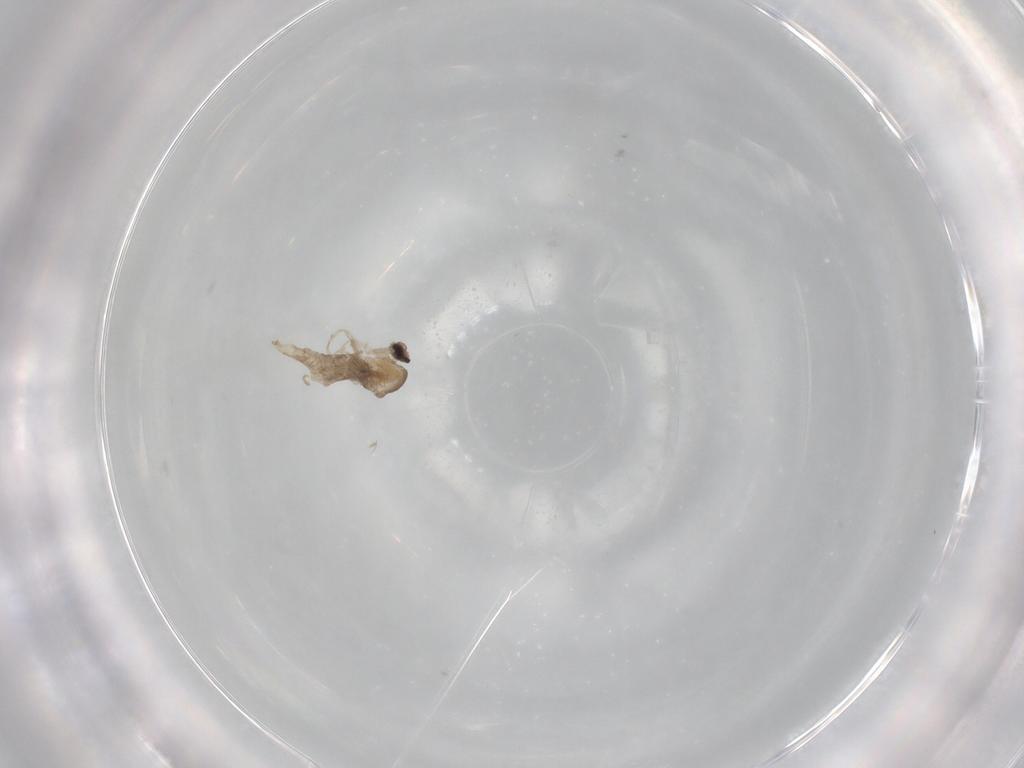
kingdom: Animalia
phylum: Arthropoda
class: Insecta
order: Diptera
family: Cecidomyiidae
